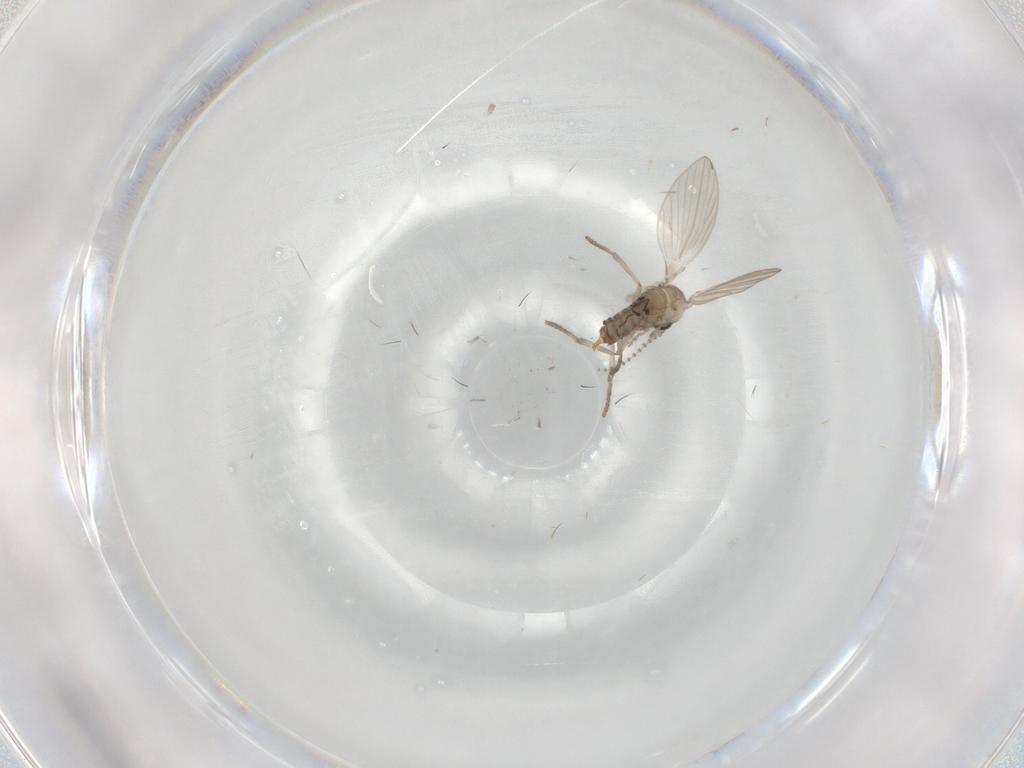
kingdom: Animalia
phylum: Arthropoda
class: Insecta
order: Diptera
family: Psychodidae
